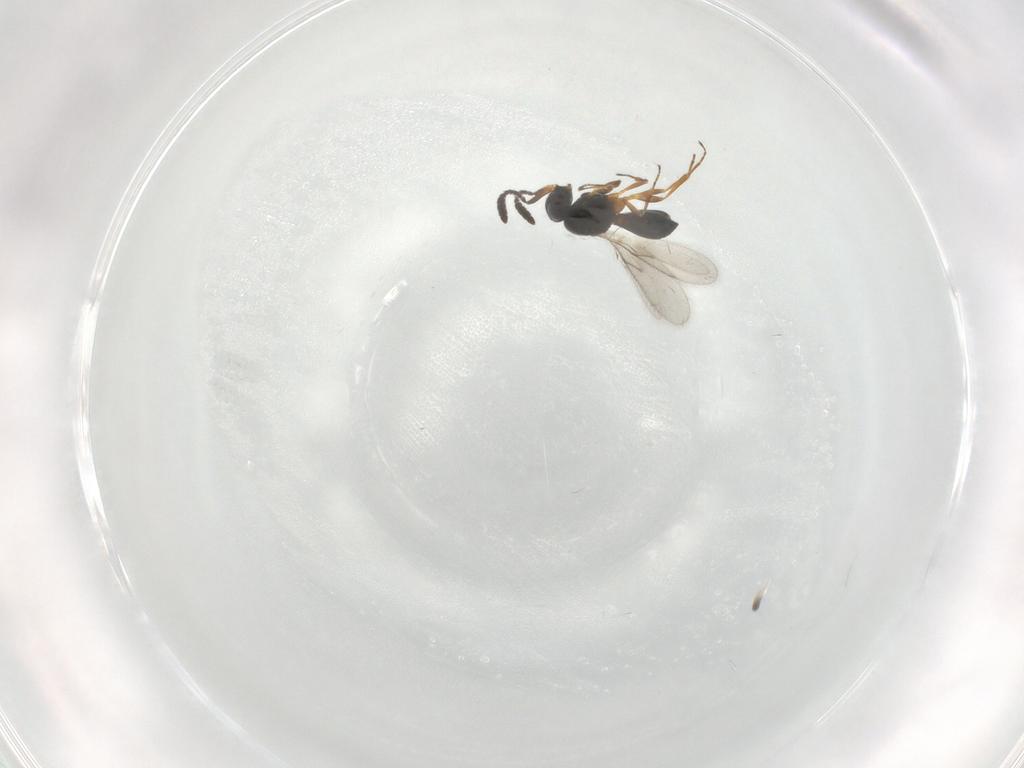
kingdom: Animalia
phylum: Arthropoda
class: Insecta
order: Hymenoptera
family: Scelionidae
